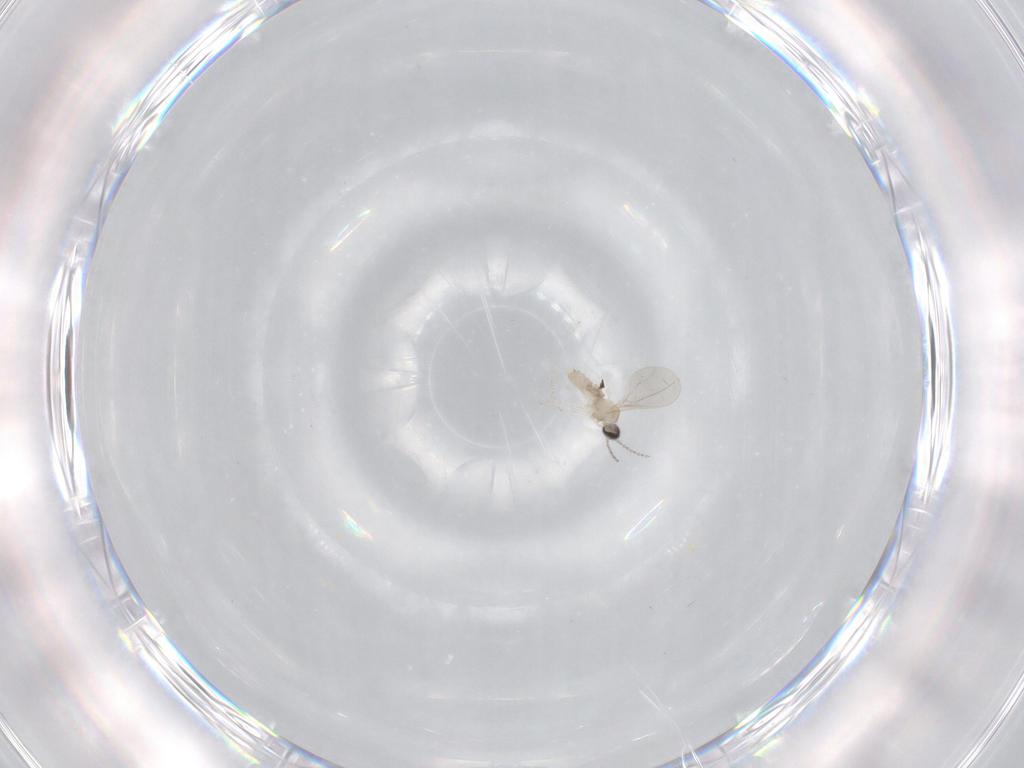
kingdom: Animalia
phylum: Arthropoda
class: Insecta
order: Diptera
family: Cecidomyiidae
